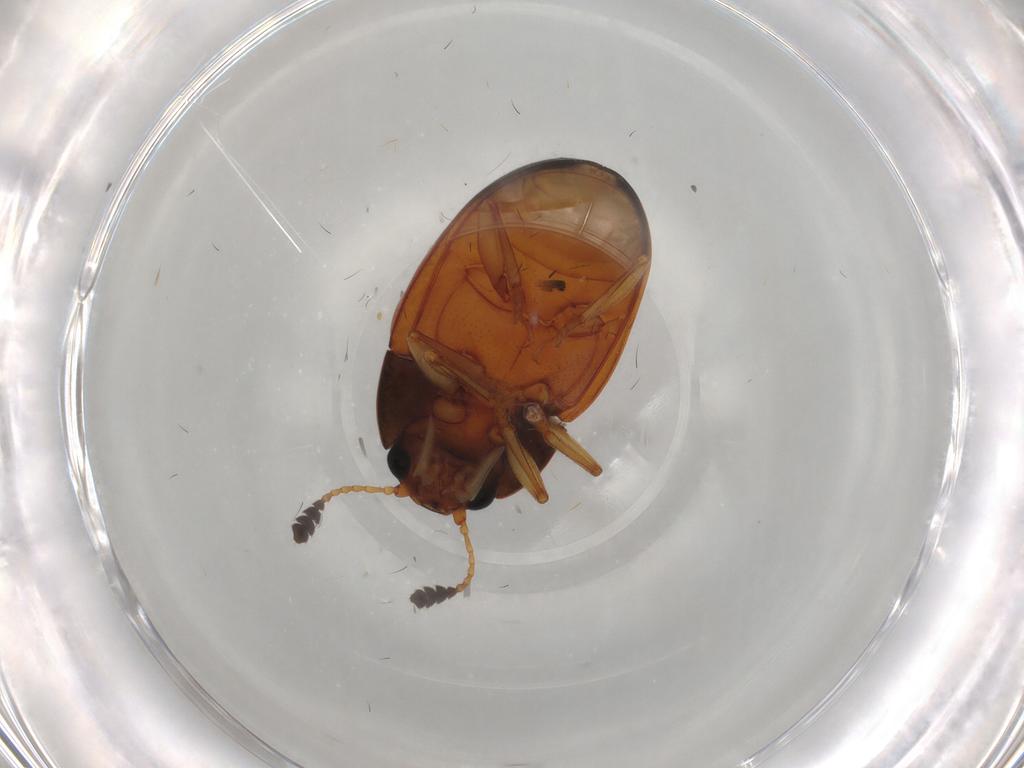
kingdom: Animalia
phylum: Arthropoda
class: Insecta
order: Coleoptera
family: Erotylidae
